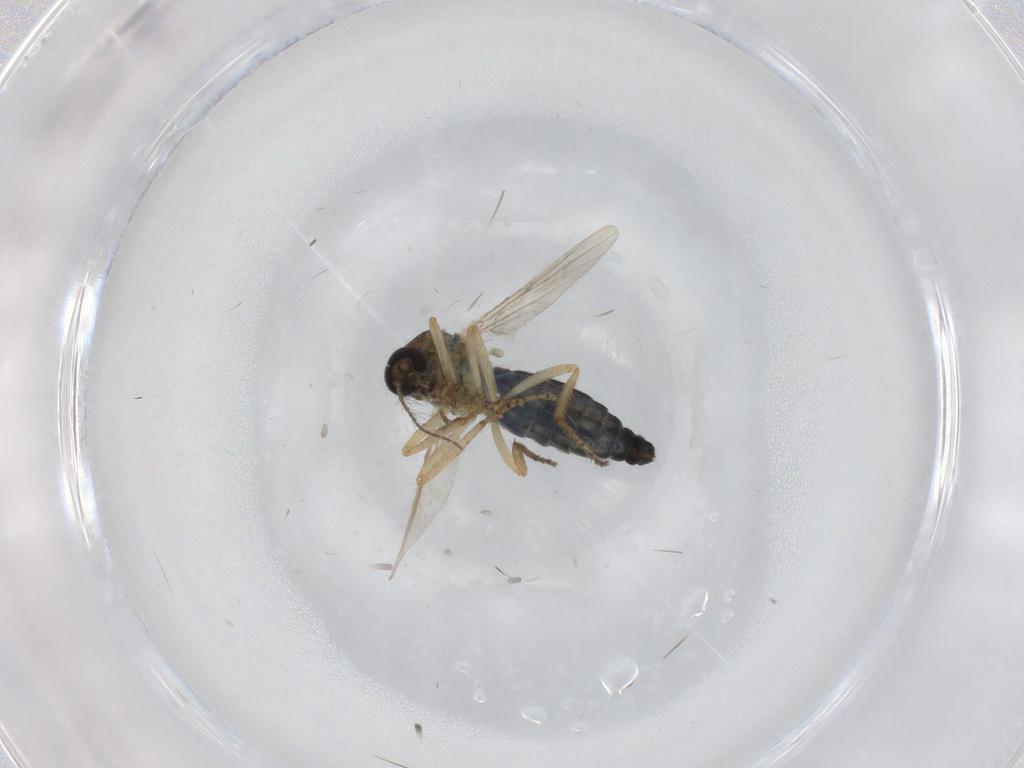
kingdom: Animalia
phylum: Arthropoda
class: Insecta
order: Diptera
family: Ceratopogonidae
